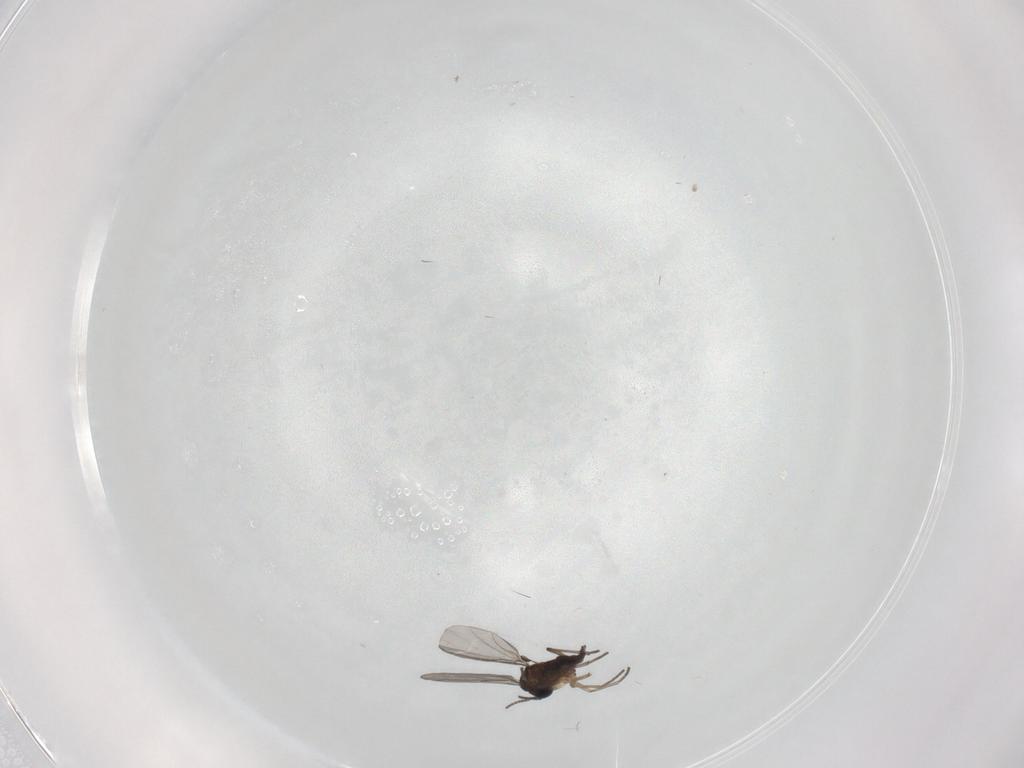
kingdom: Animalia
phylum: Arthropoda
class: Insecta
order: Diptera
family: Sciaridae
